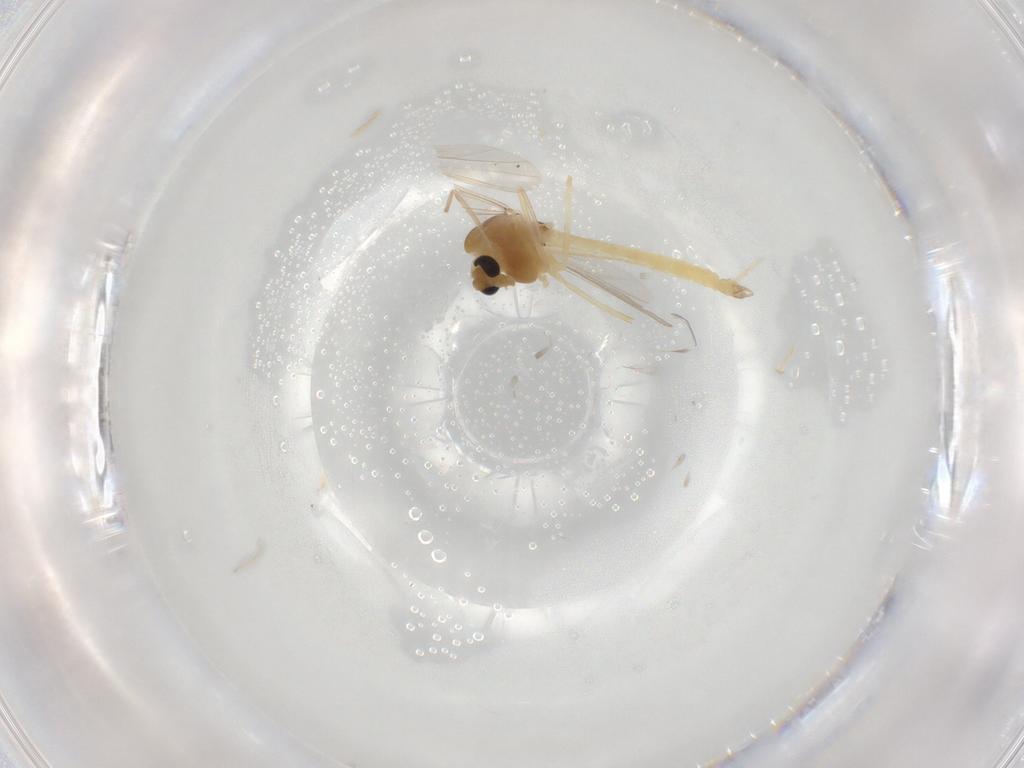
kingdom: Animalia
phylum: Arthropoda
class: Insecta
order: Diptera
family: Chironomidae
